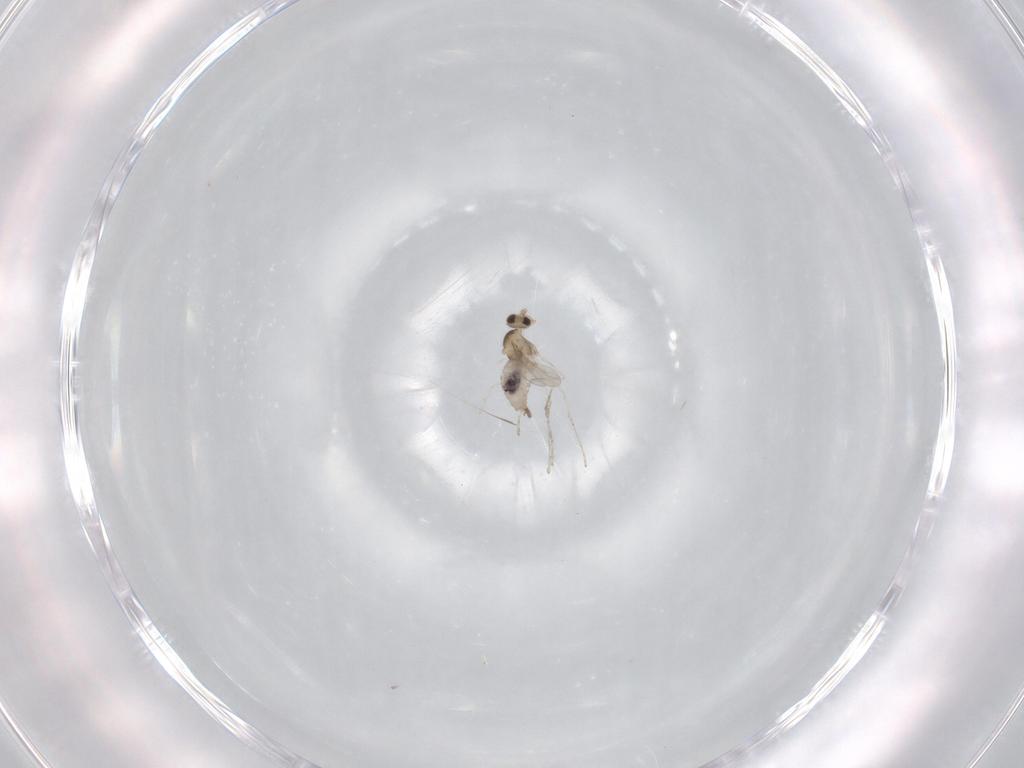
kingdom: Animalia
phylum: Arthropoda
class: Insecta
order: Diptera
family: Cecidomyiidae
